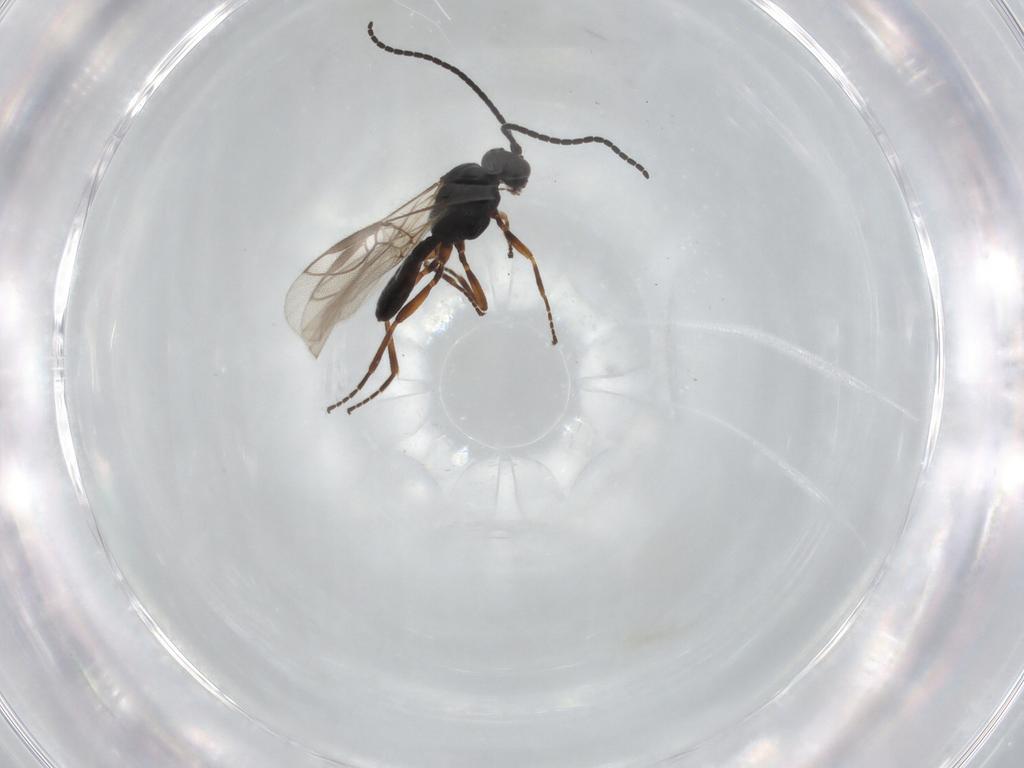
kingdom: Animalia
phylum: Arthropoda
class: Insecta
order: Hymenoptera
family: Braconidae
